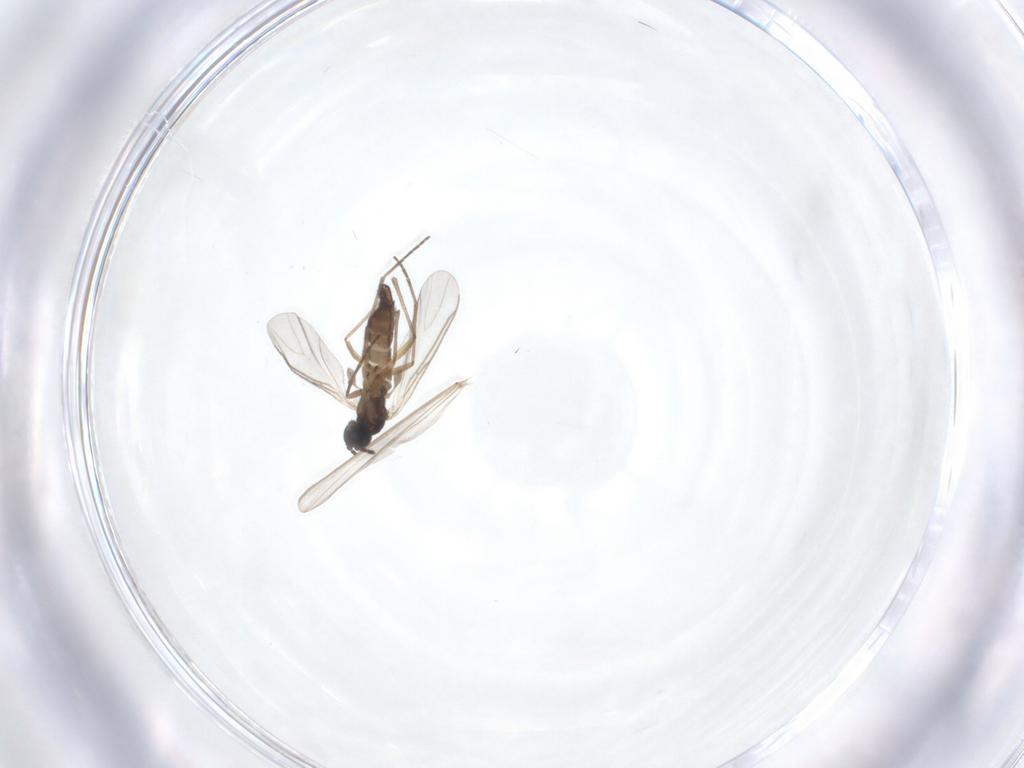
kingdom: Animalia
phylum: Arthropoda
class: Insecta
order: Diptera
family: Sciaridae
